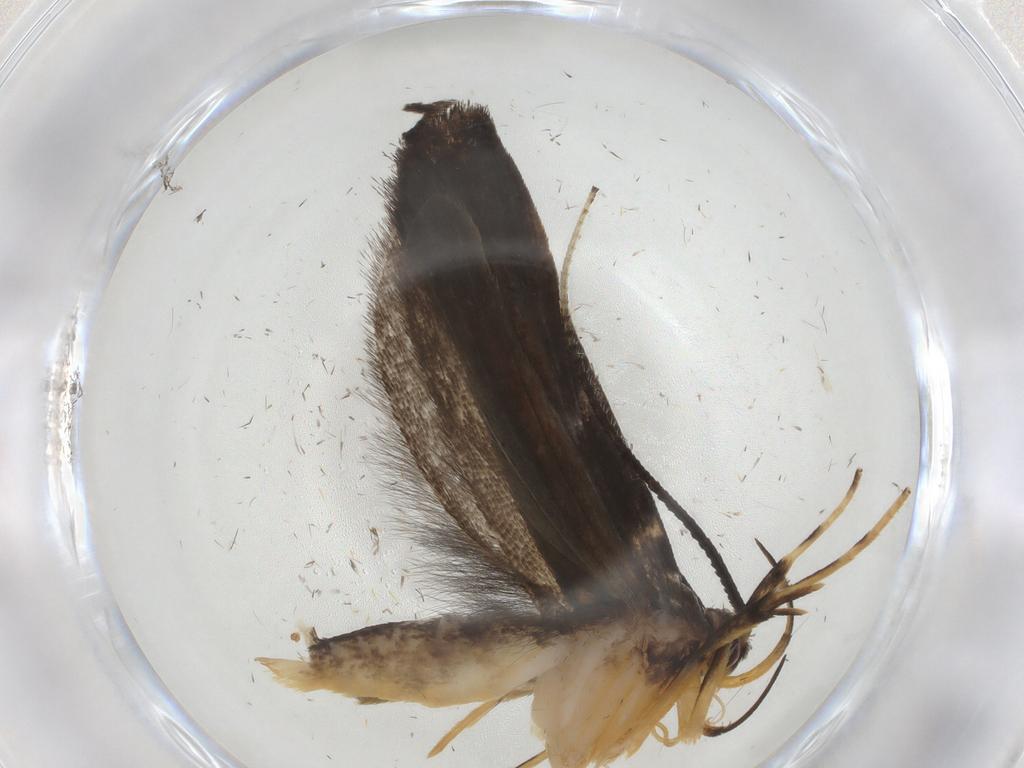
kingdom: Animalia
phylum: Arthropoda
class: Insecta
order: Lepidoptera
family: Gelechiidae
